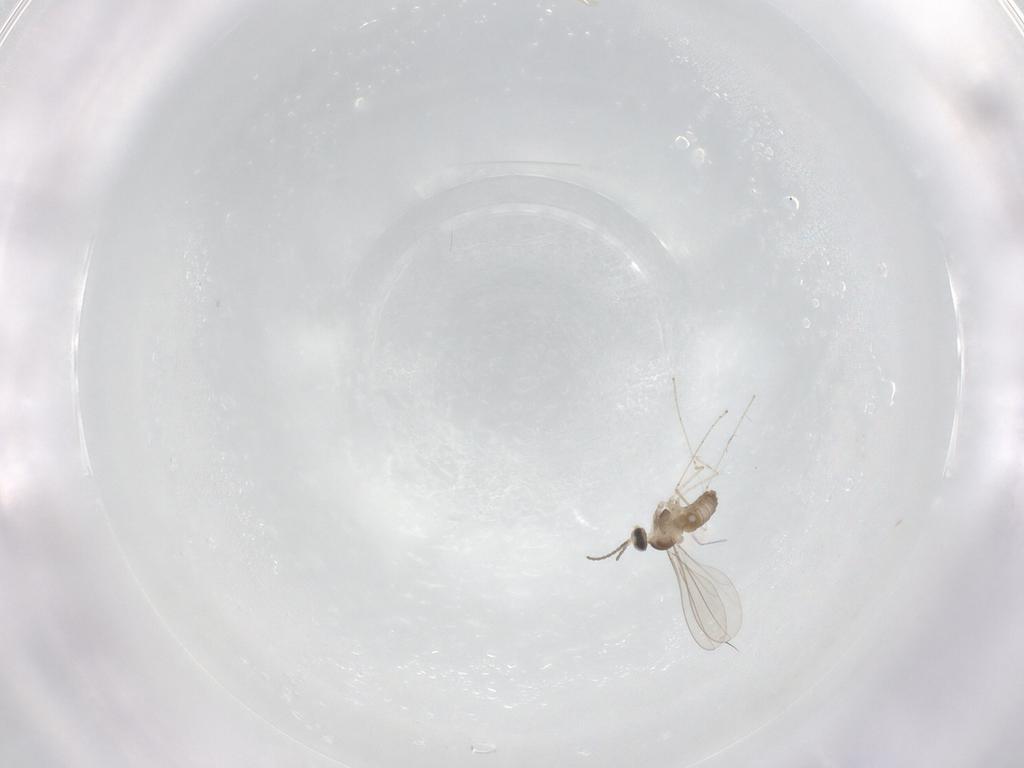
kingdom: Animalia
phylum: Arthropoda
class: Insecta
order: Diptera
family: Cecidomyiidae
